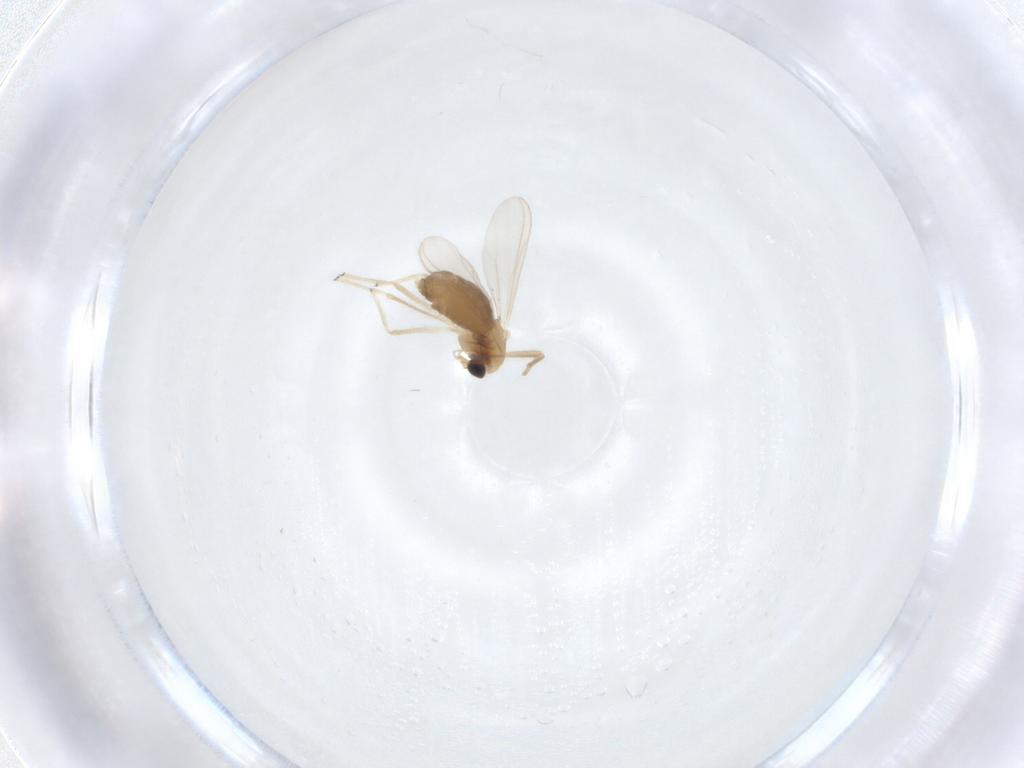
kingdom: Animalia
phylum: Arthropoda
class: Insecta
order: Diptera
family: Chironomidae
